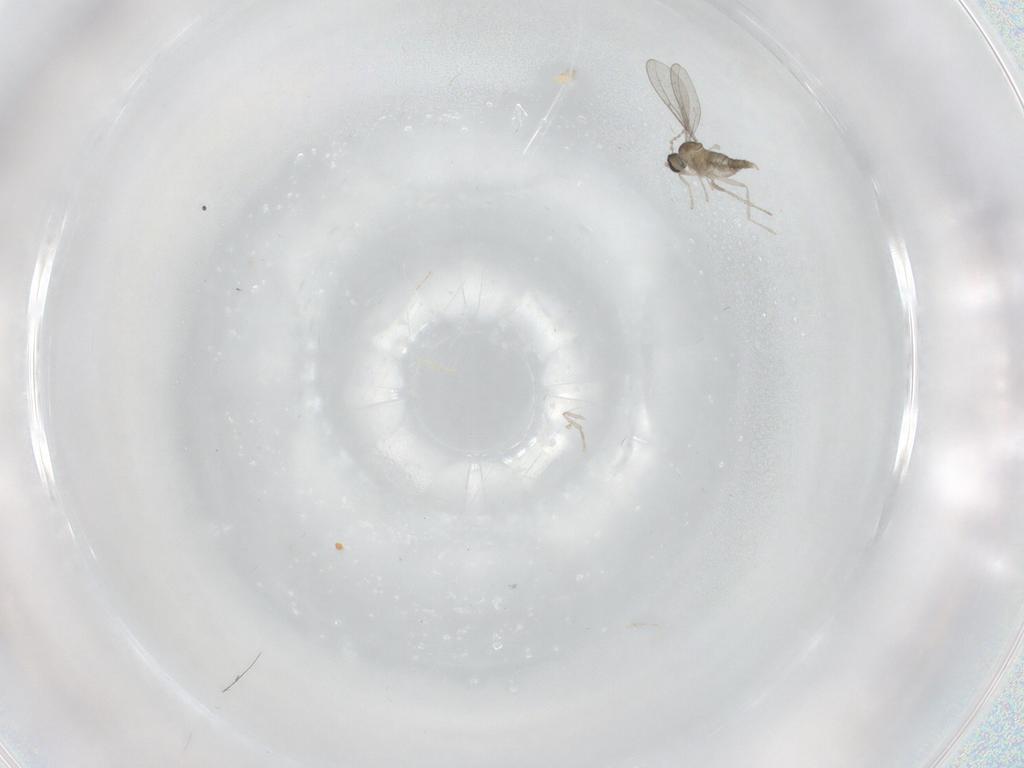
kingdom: Animalia
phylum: Arthropoda
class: Insecta
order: Diptera
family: Cecidomyiidae
